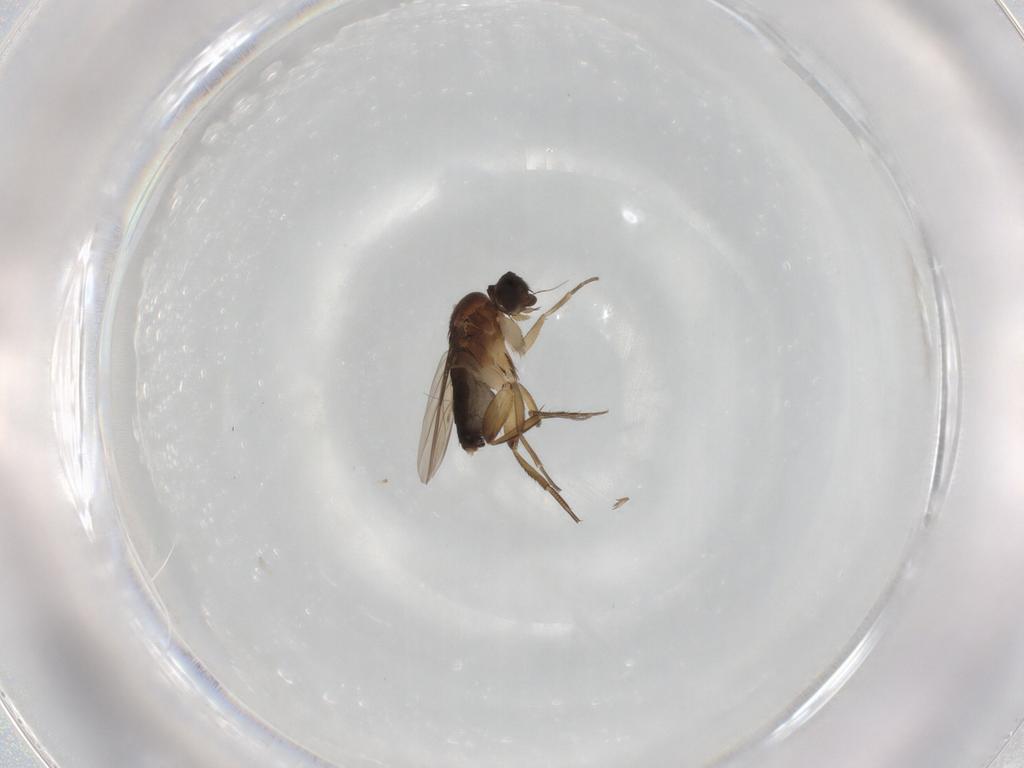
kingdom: Animalia
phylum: Arthropoda
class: Insecta
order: Diptera
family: Phoridae
